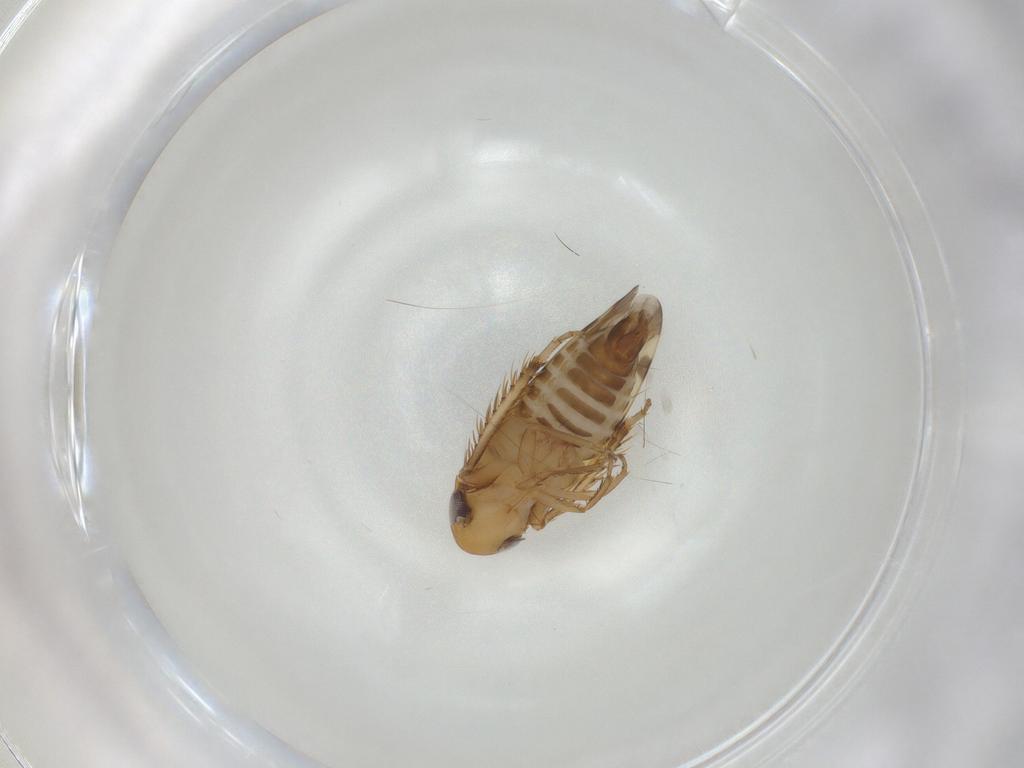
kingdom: Animalia
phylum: Arthropoda
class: Insecta
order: Hemiptera
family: Cicadellidae
